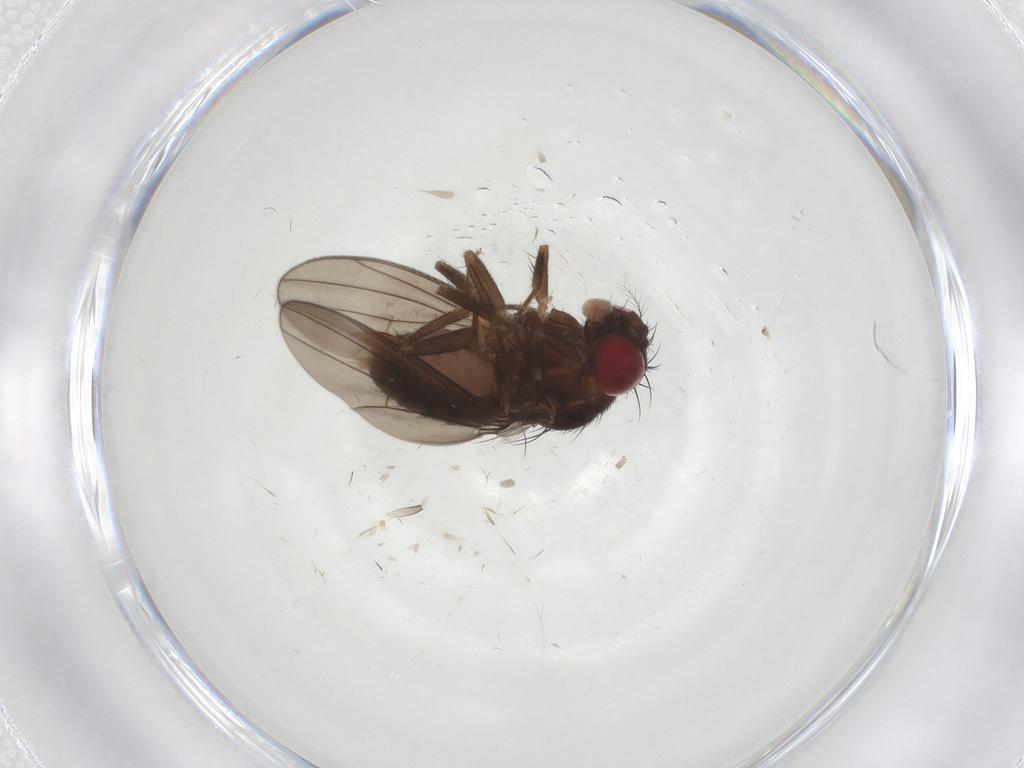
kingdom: Animalia
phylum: Arthropoda
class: Insecta
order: Diptera
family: Drosophilidae
